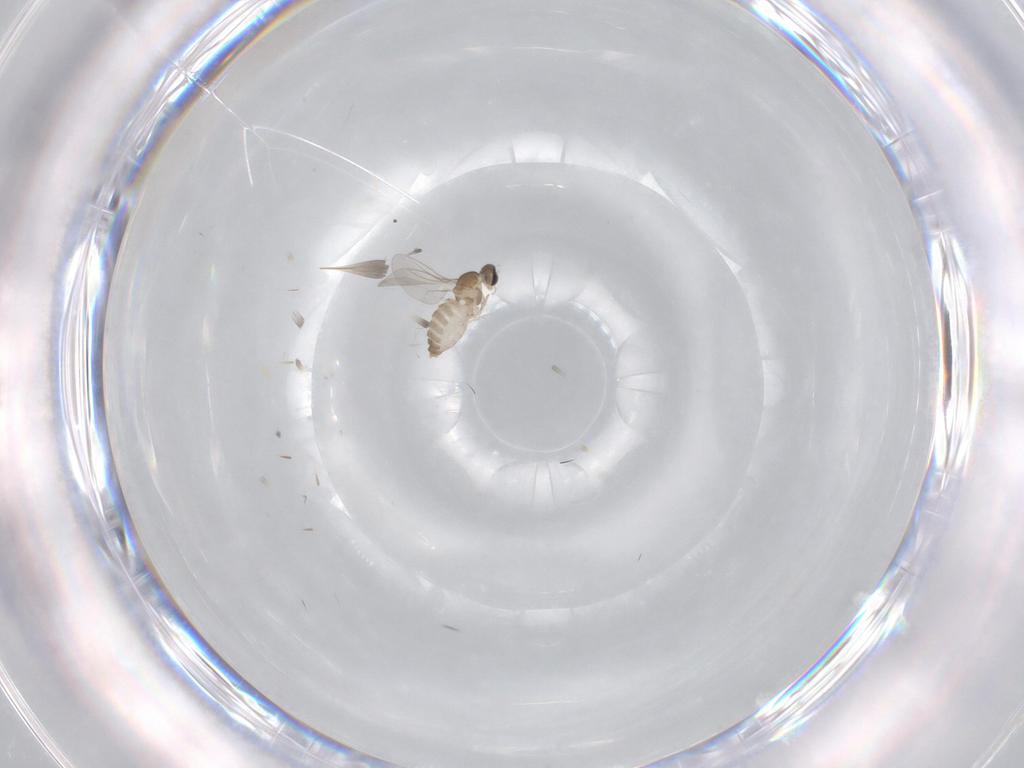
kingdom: Animalia
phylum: Arthropoda
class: Insecta
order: Diptera
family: Cecidomyiidae
